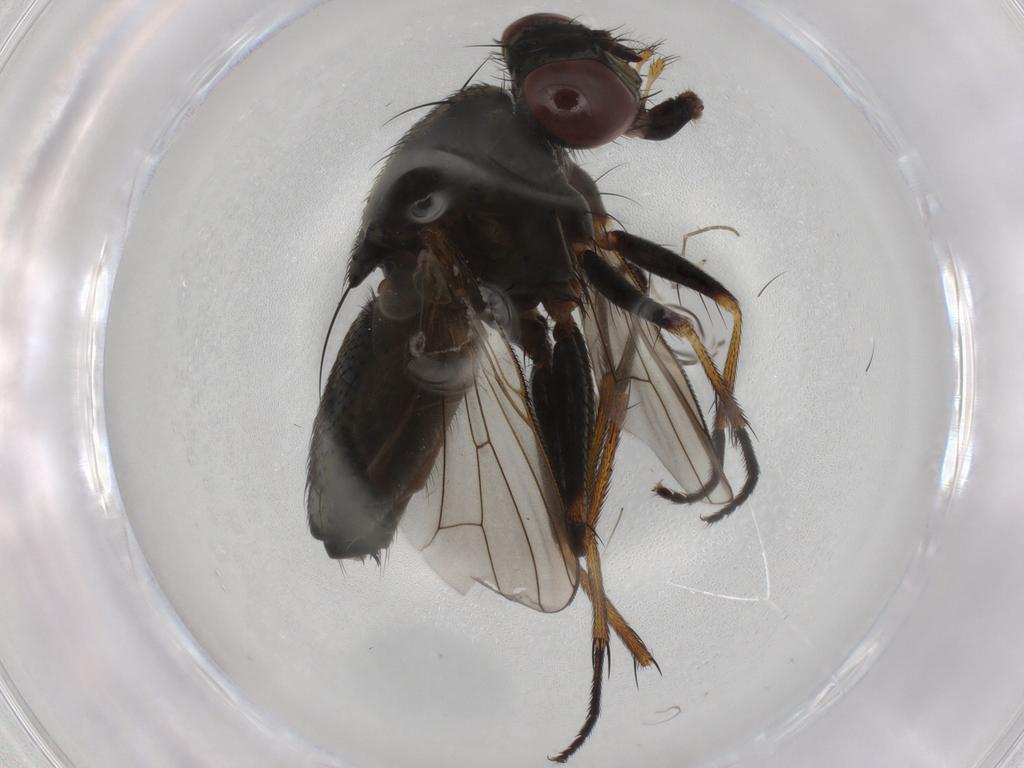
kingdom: Animalia
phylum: Arthropoda
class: Insecta
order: Diptera
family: Muscidae
